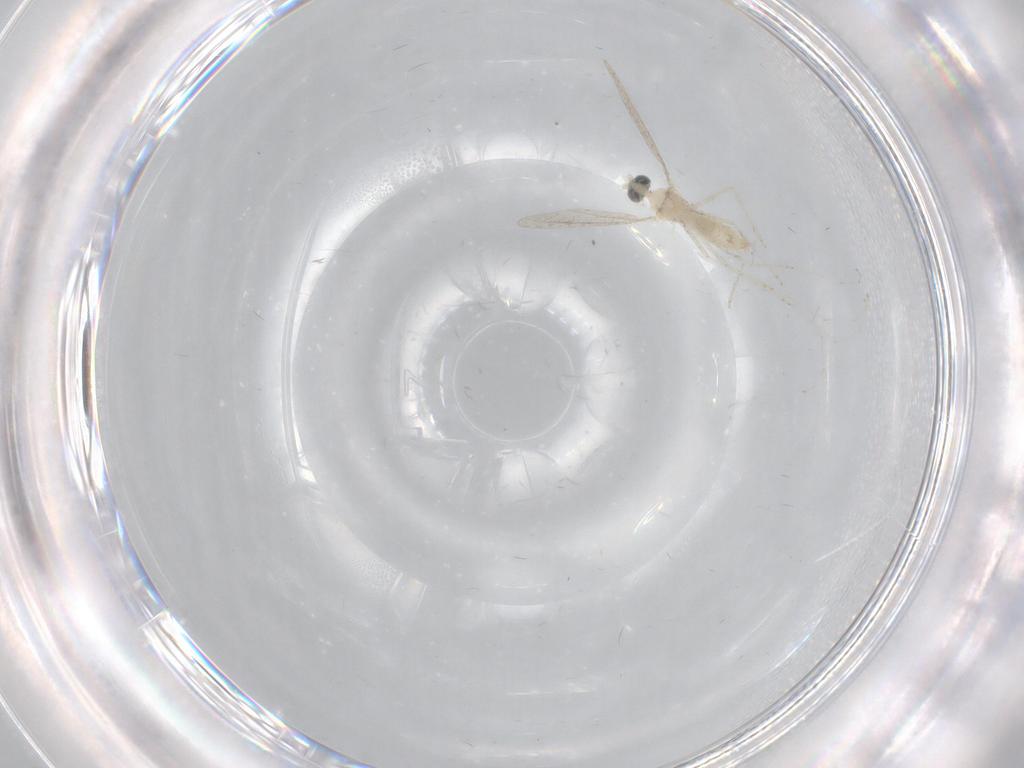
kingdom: Animalia
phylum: Arthropoda
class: Insecta
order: Diptera
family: Cecidomyiidae
